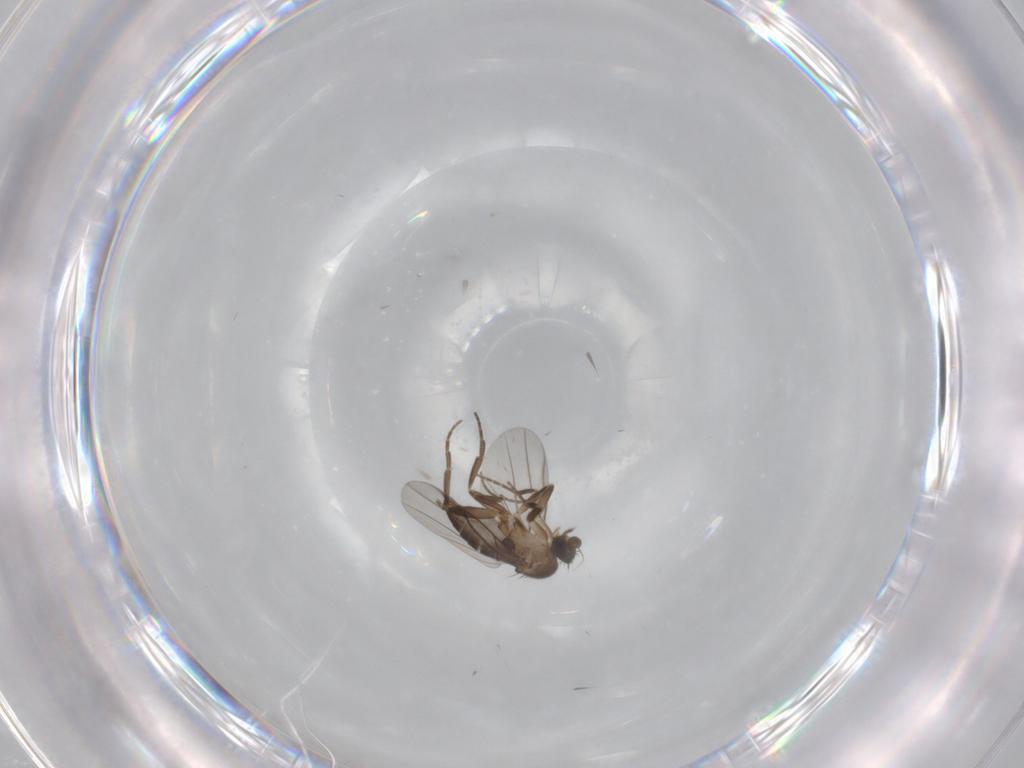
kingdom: Animalia
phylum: Arthropoda
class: Insecta
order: Diptera
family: Phoridae
